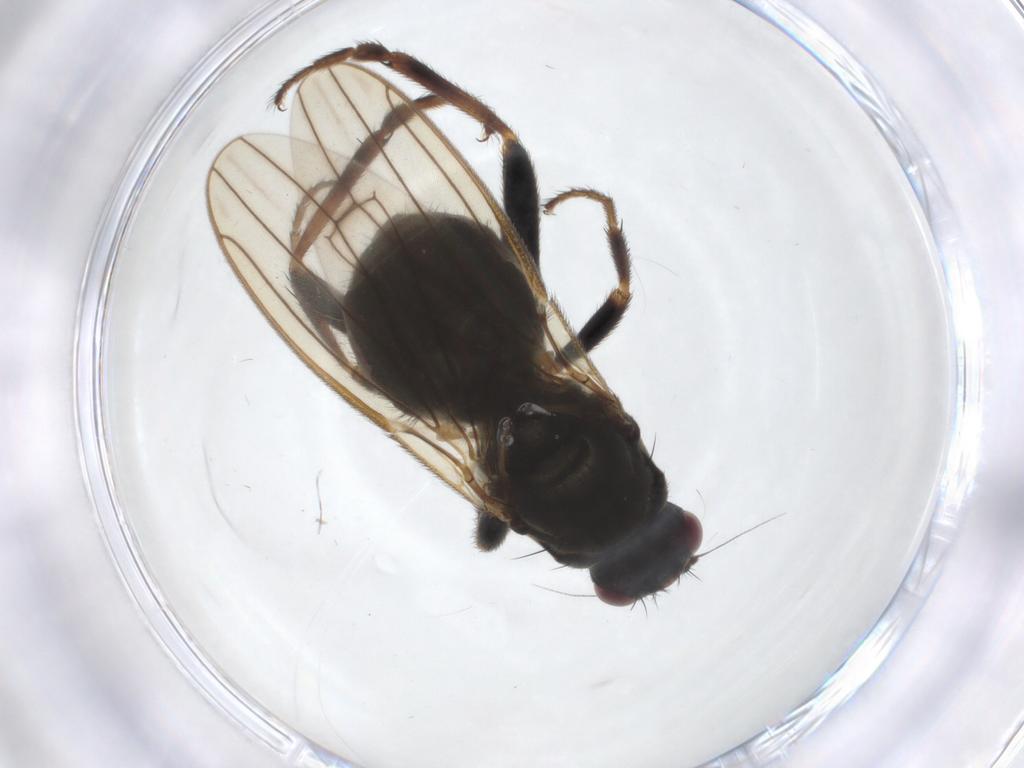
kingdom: Animalia
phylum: Arthropoda
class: Insecta
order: Diptera
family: Sphaeroceridae
